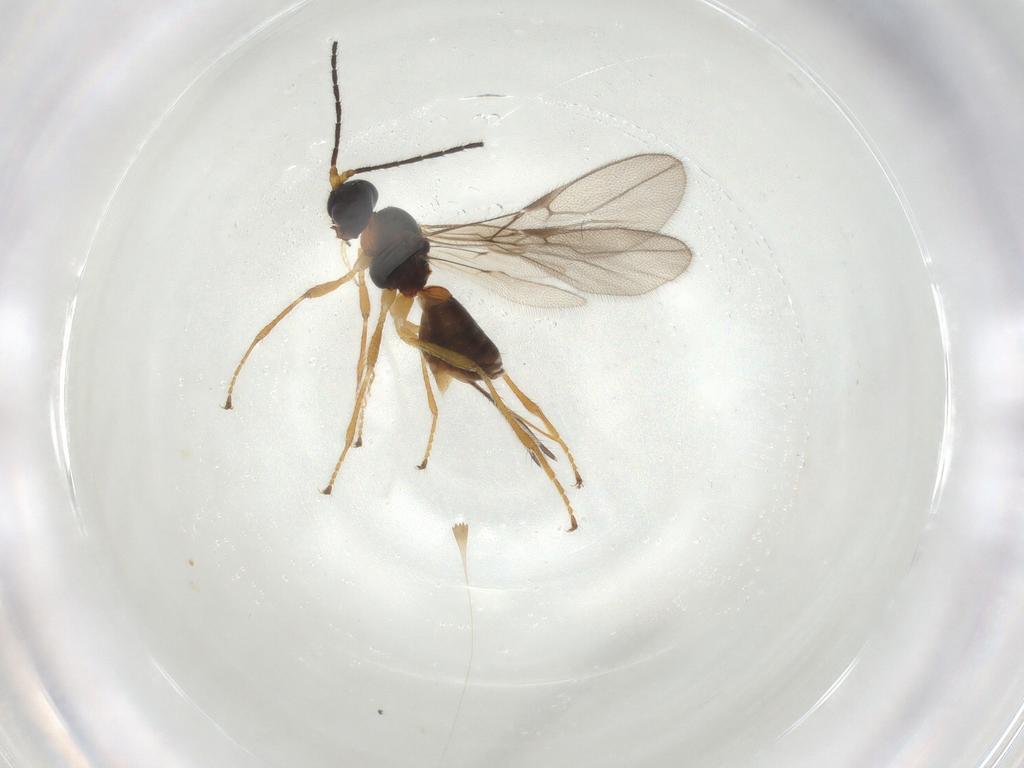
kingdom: Animalia
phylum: Arthropoda
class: Insecta
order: Hymenoptera
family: Braconidae
